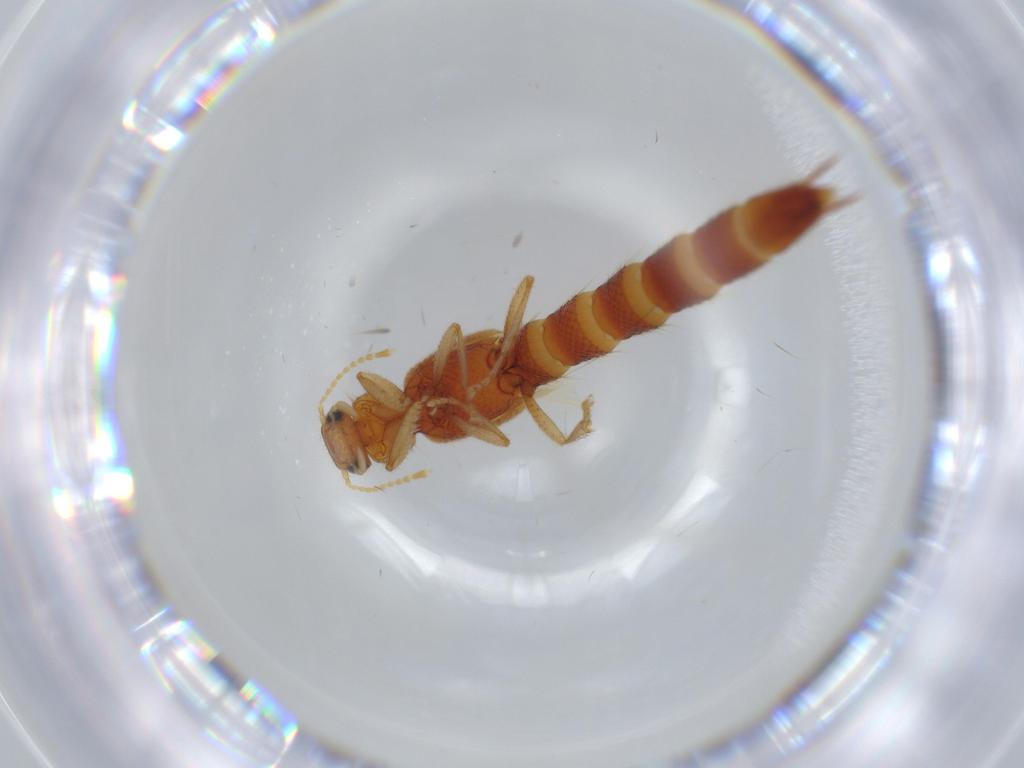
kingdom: Animalia
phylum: Arthropoda
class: Insecta
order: Coleoptera
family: Staphylinidae
